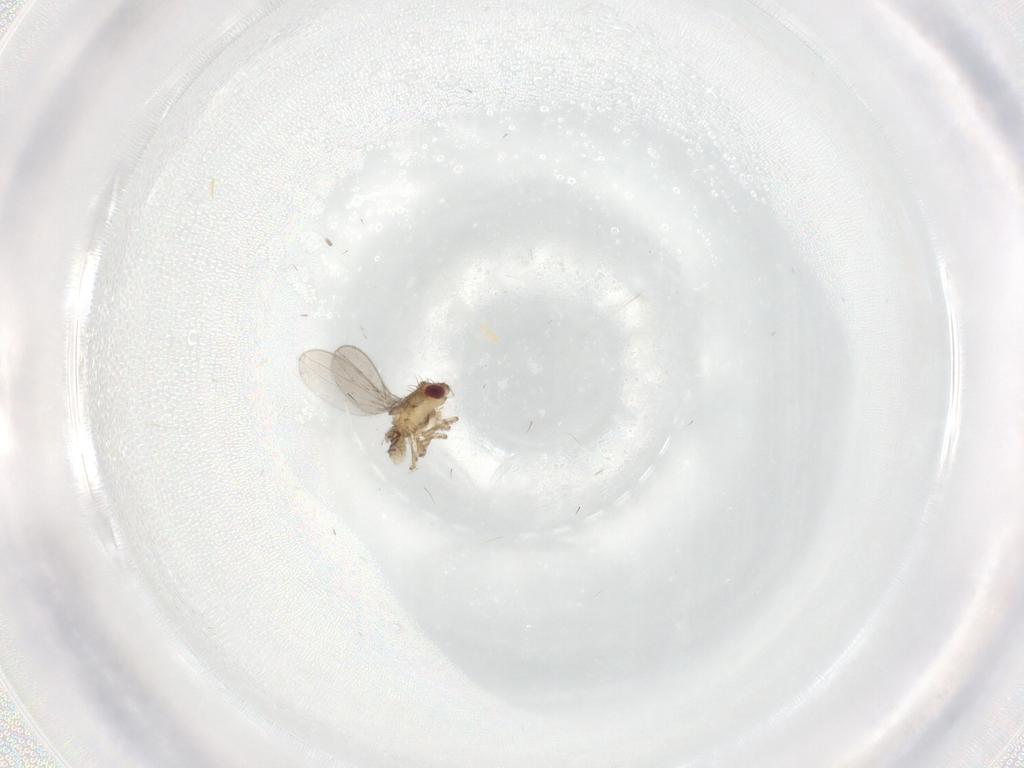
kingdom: Animalia
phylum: Arthropoda
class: Insecta
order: Diptera
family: Asteiidae
